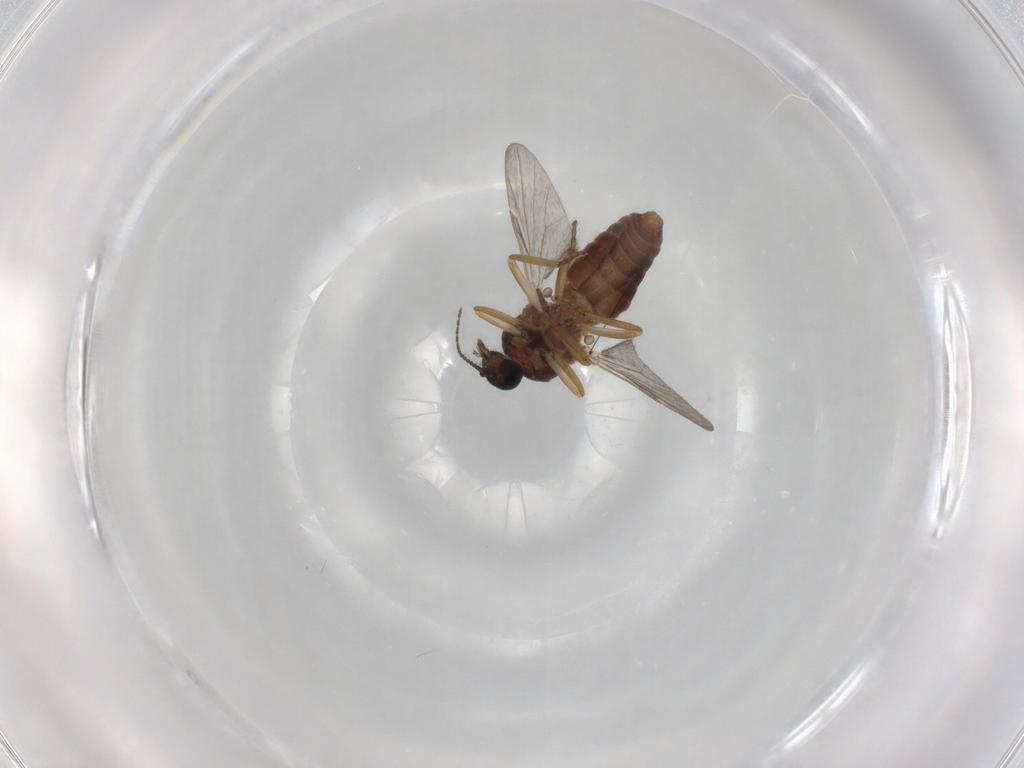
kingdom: Animalia
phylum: Arthropoda
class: Insecta
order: Diptera
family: Ceratopogonidae
